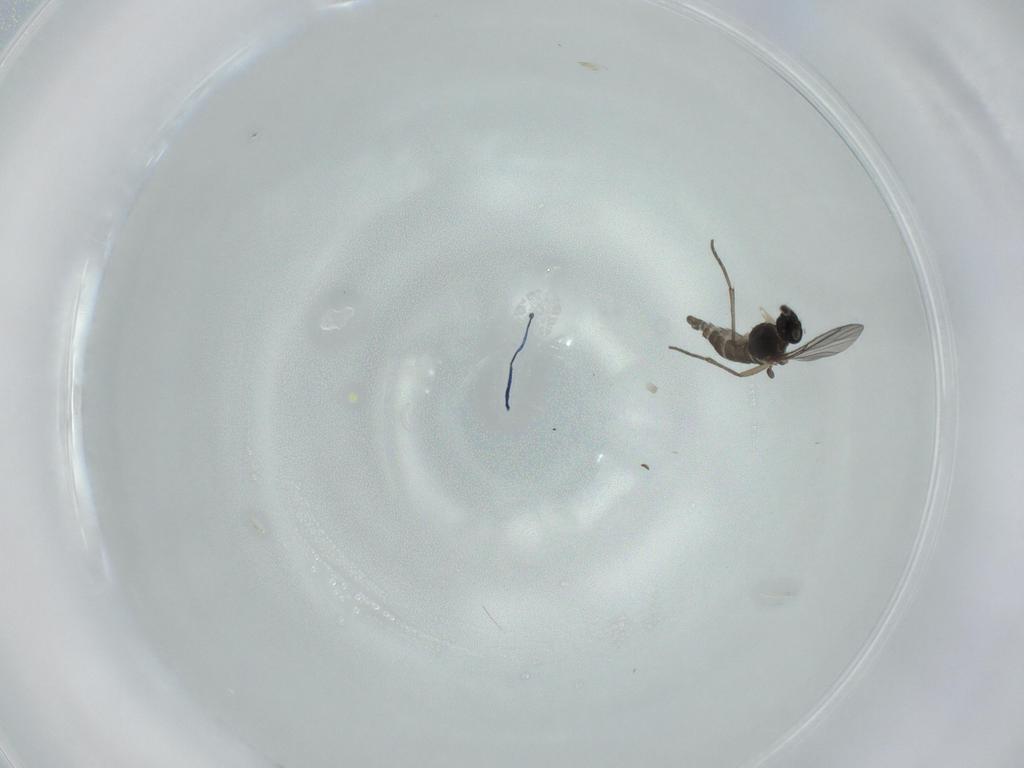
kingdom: Animalia
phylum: Arthropoda
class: Insecta
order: Diptera
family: Sciaridae
